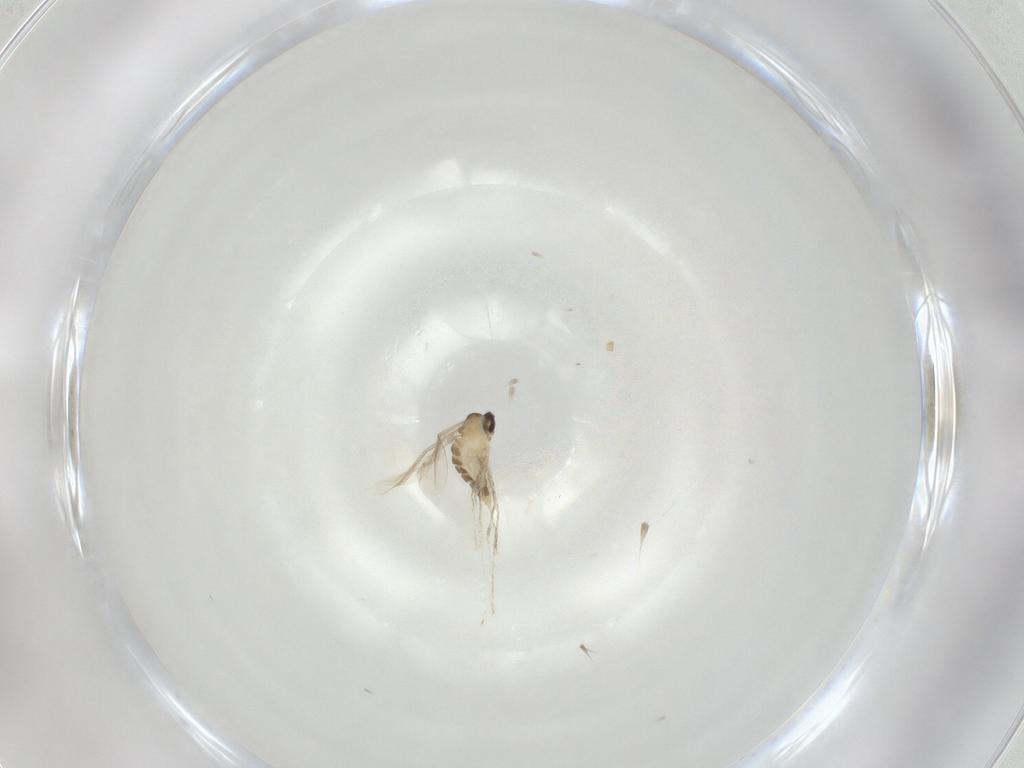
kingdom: Animalia
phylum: Arthropoda
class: Insecta
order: Diptera
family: Cecidomyiidae
